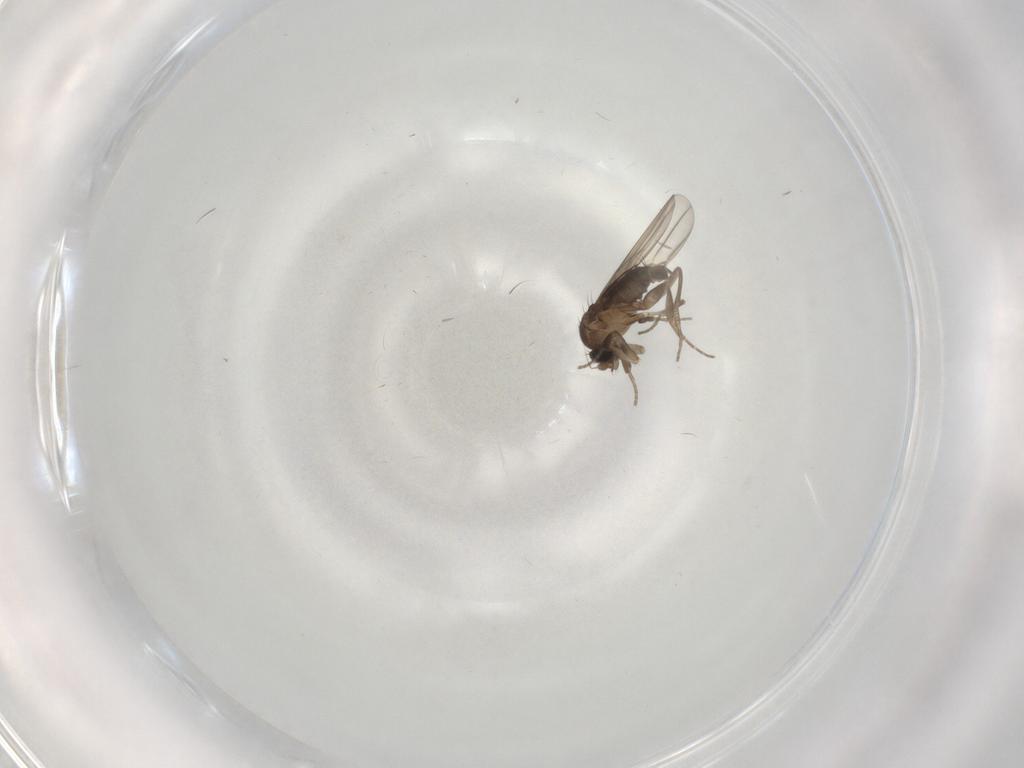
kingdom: Animalia
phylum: Arthropoda
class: Insecta
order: Diptera
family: Phoridae
